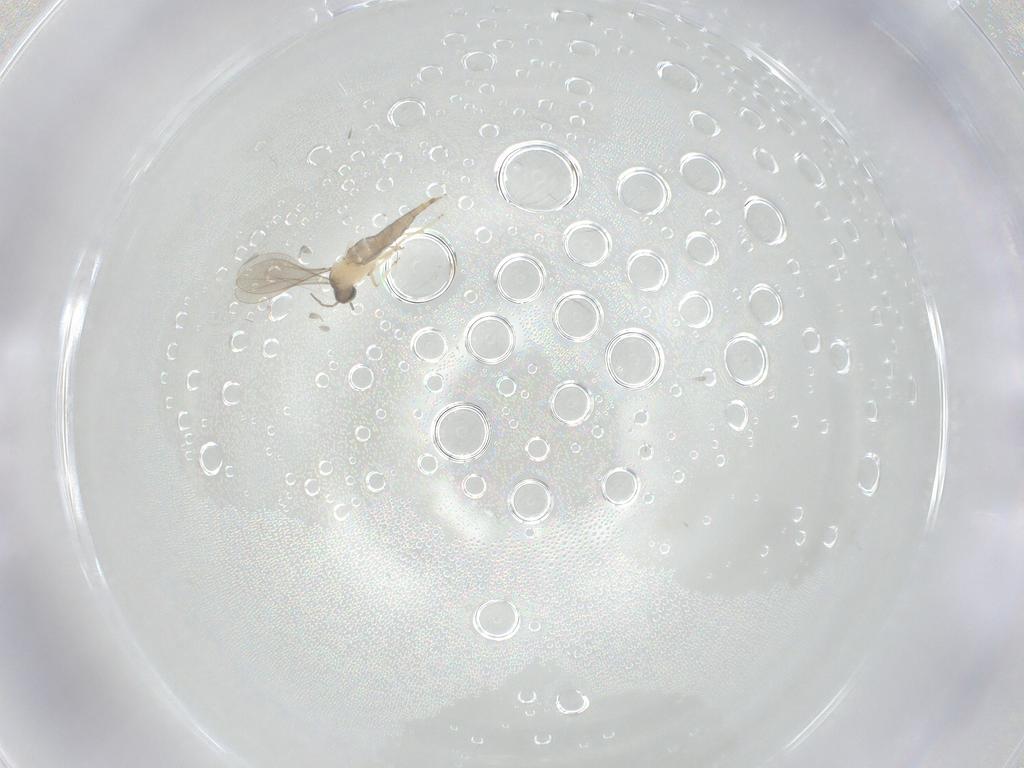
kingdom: Animalia
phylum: Arthropoda
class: Insecta
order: Diptera
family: Cecidomyiidae
